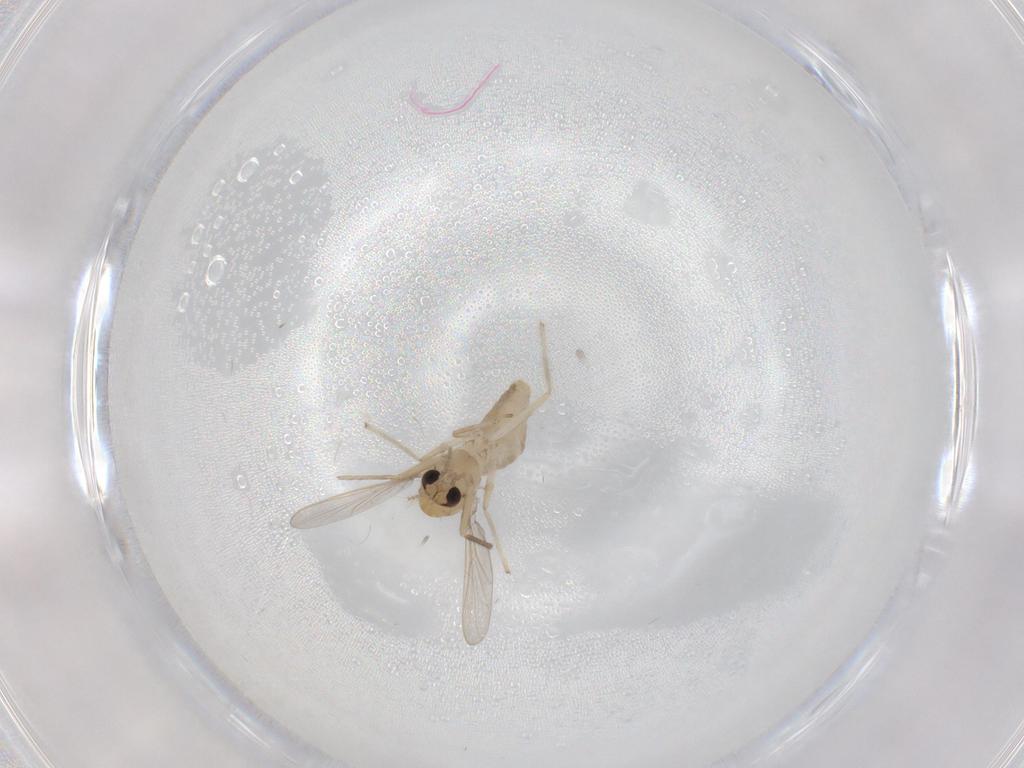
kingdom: Animalia
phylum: Arthropoda
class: Insecta
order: Diptera
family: Chironomidae
